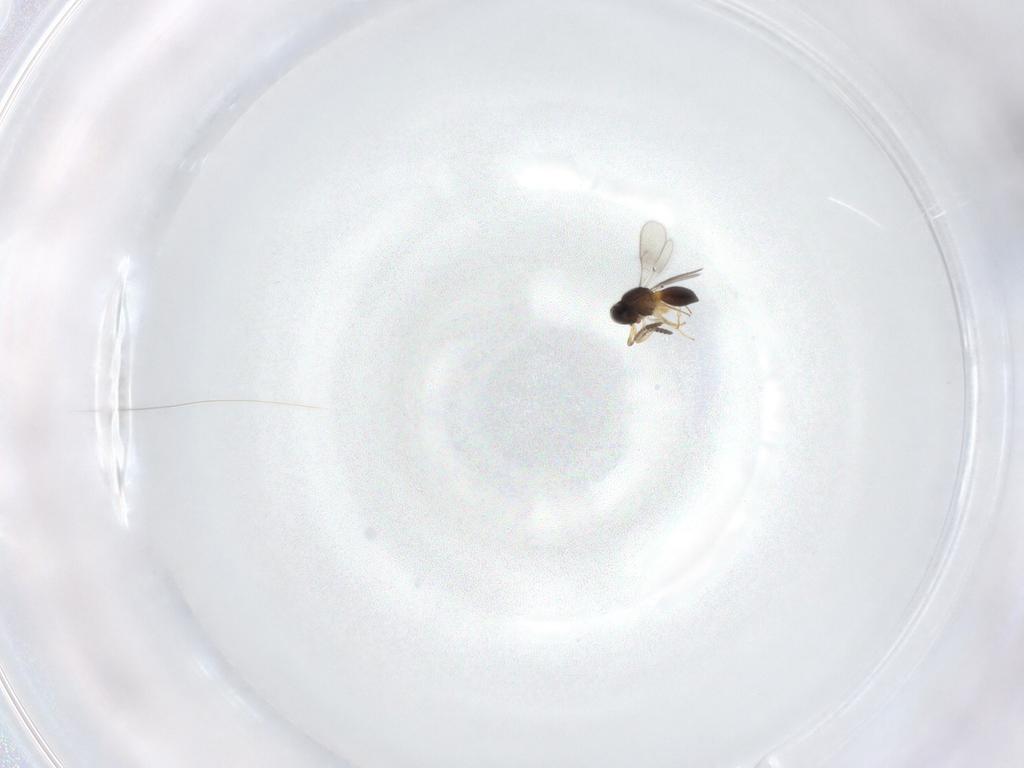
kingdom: Animalia
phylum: Arthropoda
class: Insecta
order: Hymenoptera
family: Scelionidae
